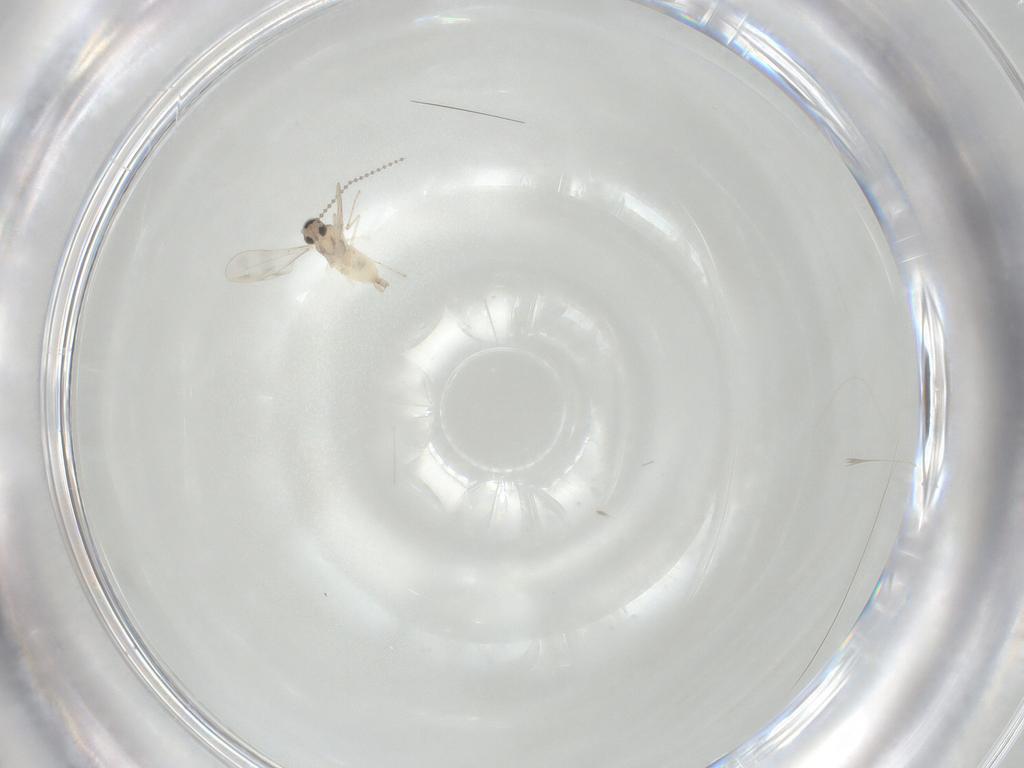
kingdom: Animalia
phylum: Arthropoda
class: Insecta
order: Diptera
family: Cecidomyiidae
